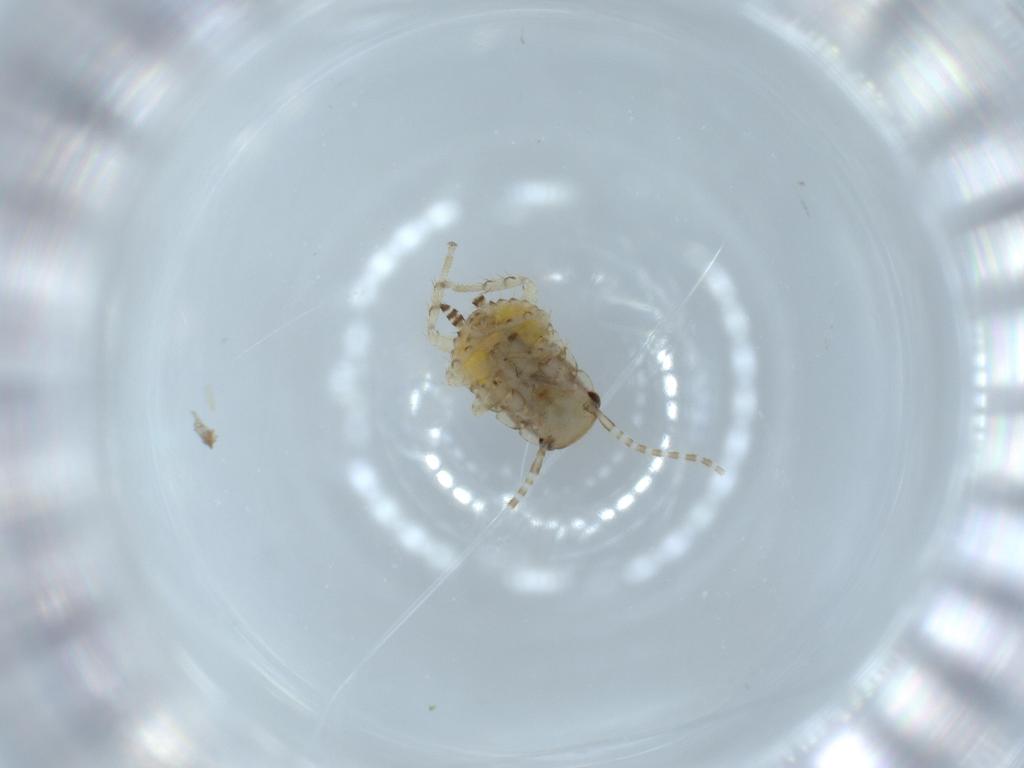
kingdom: Animalia
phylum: Arthropoda
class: Insecta
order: Blattodea
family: Ectobiidae
